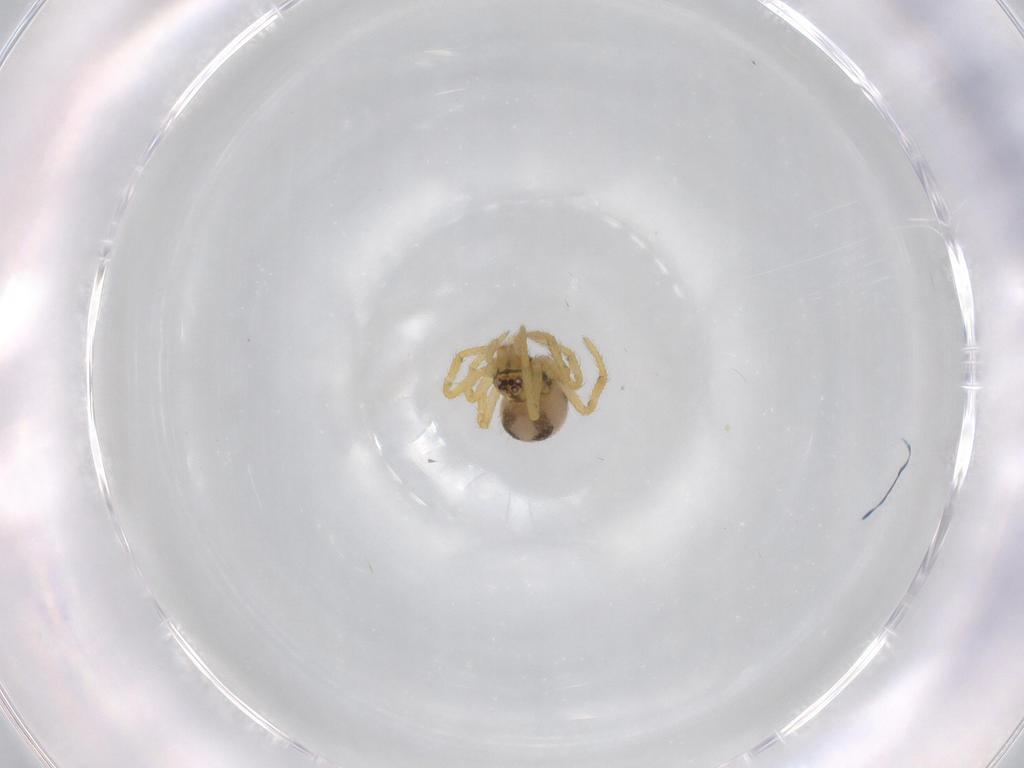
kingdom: Animalia
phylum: Arthropoda
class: Arachnida
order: Araneae
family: Theridiidae
